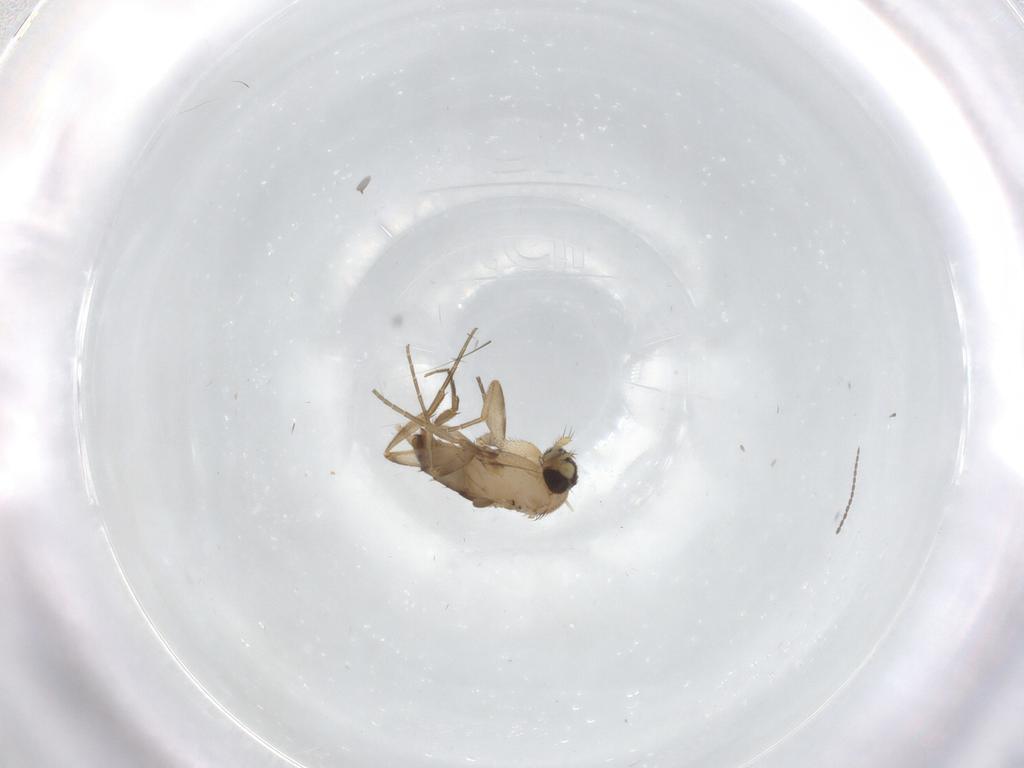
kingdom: Animalia
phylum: Arthropoda
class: Insecta
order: Diptera
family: Cecidomyiidae
